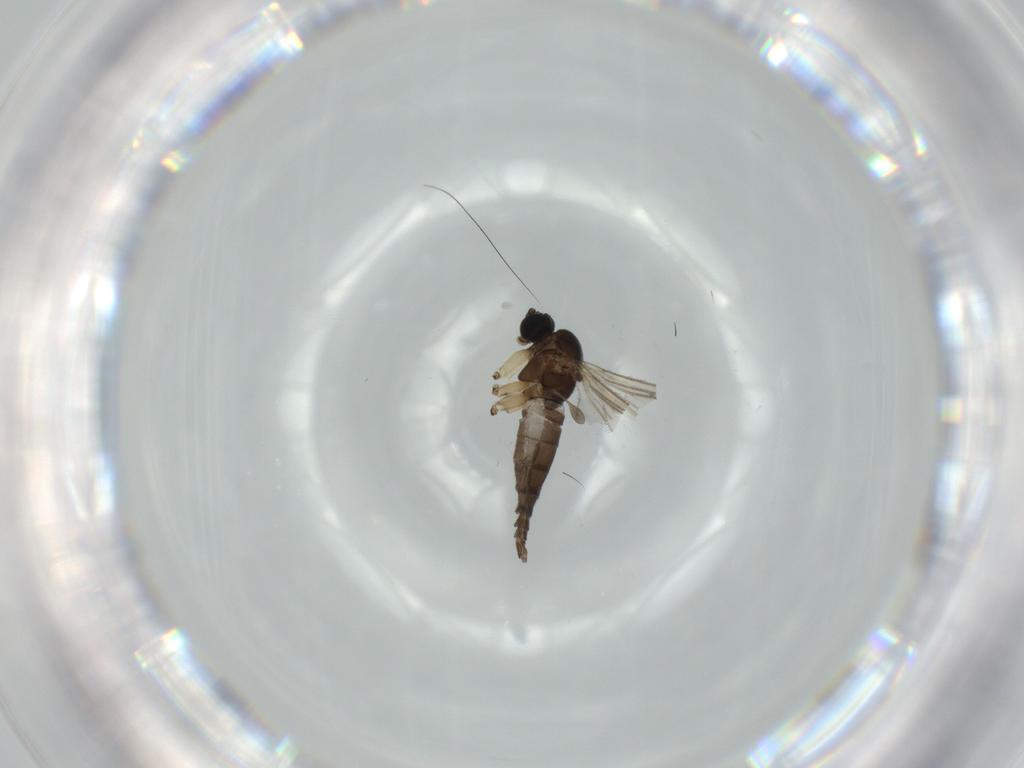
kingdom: Animalia
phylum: Arthropoda
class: Insecta
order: Diptera
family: Sciaridae
